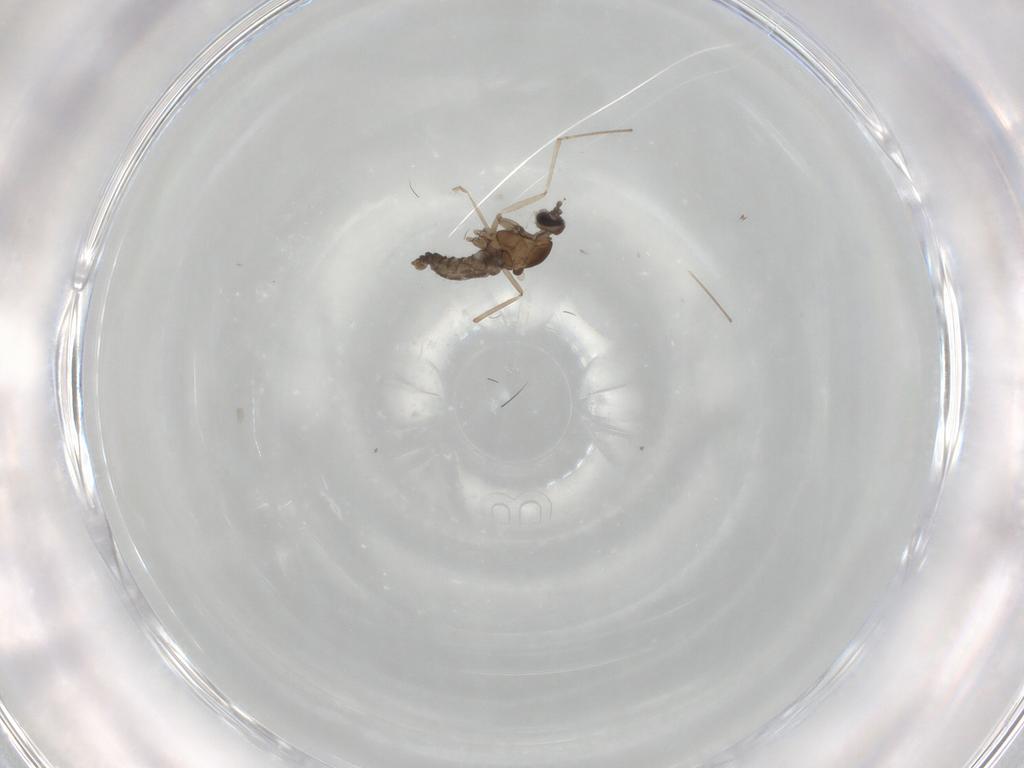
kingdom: Animalia
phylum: Arthropoda
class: Insecta
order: Diptera
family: Cecidomyiidae
